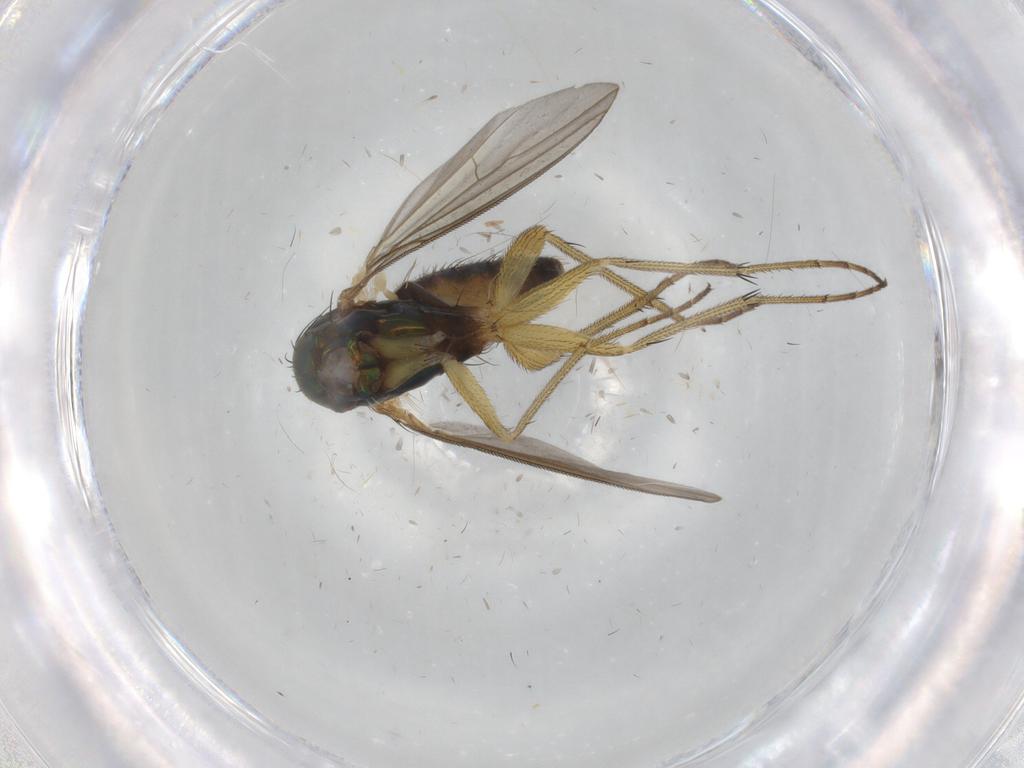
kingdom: Animalia
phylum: Arthropoda
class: Insecta
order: Diptera
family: Dolichopodidae
